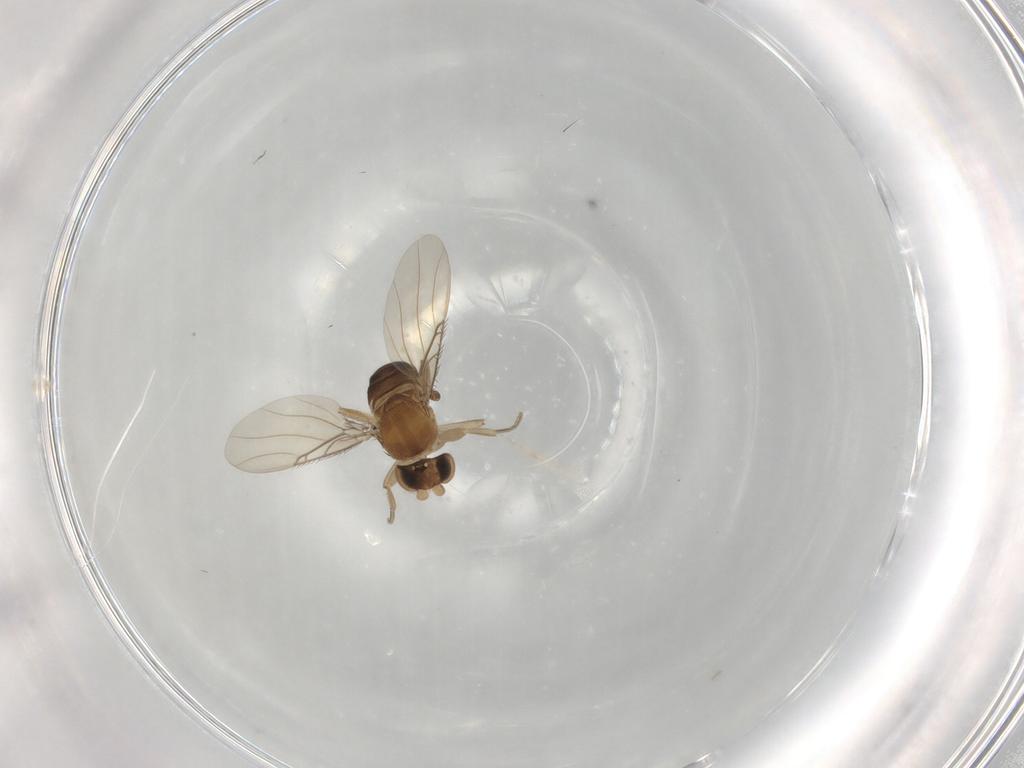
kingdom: Animalia
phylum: Arthropoda
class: Insecta
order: Diptera
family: Phoridae
